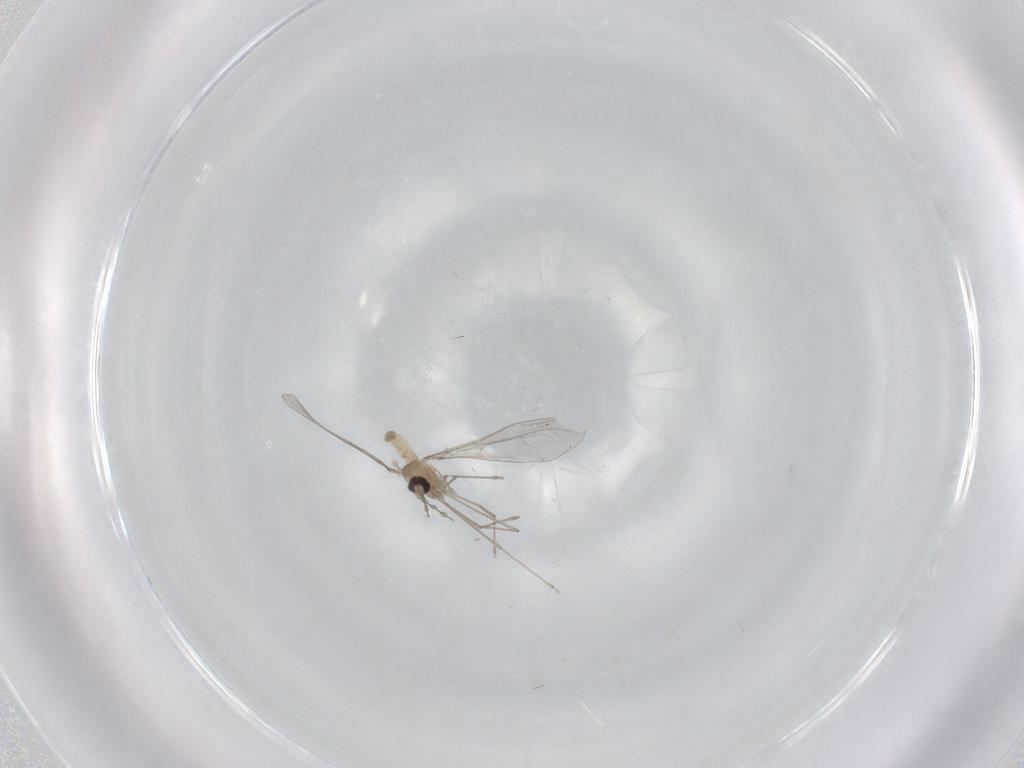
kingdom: Animalia
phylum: Arthropoda
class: Insecta
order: Diptera
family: Cecidomyiidae
